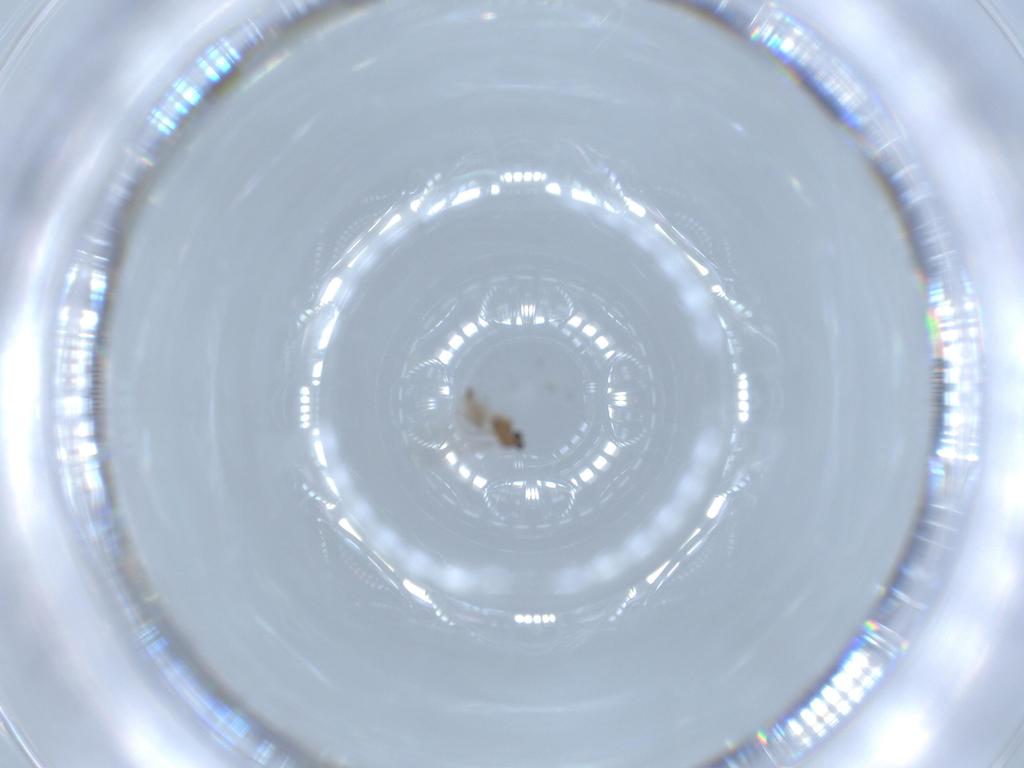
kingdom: Animalia
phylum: Arthropoda
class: Insecta
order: Diptera
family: Cecidomyiidae
